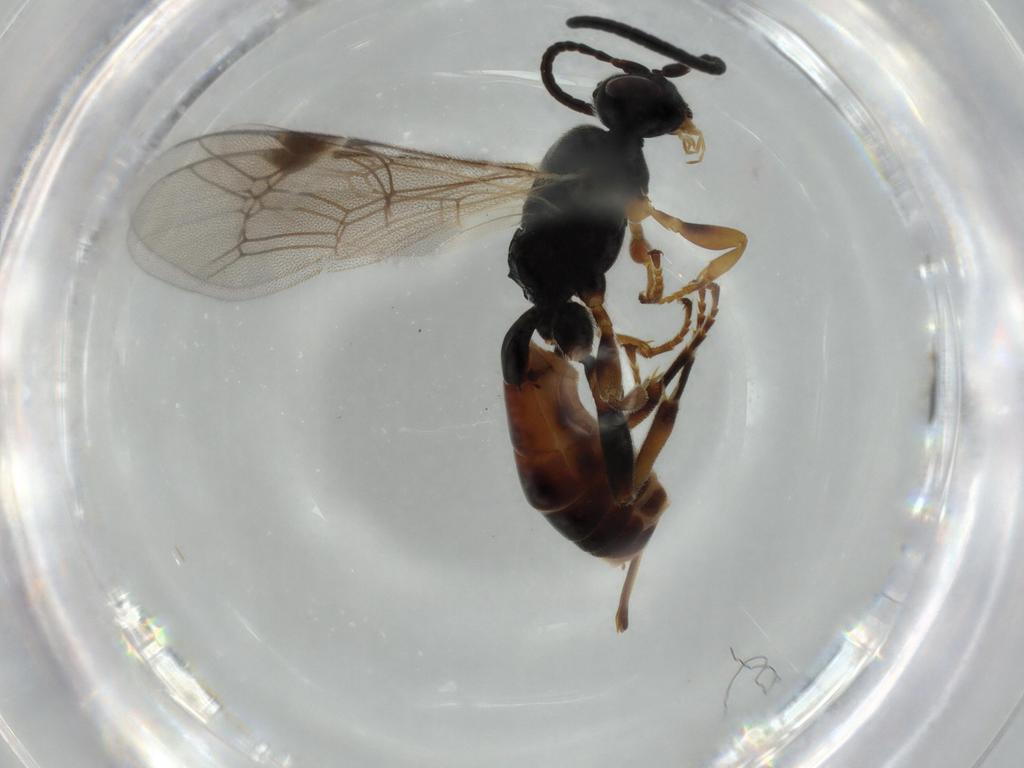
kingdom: Animalia
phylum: Arthropoda
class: Insecta
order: Hymenoptera
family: Ichneumonidae
